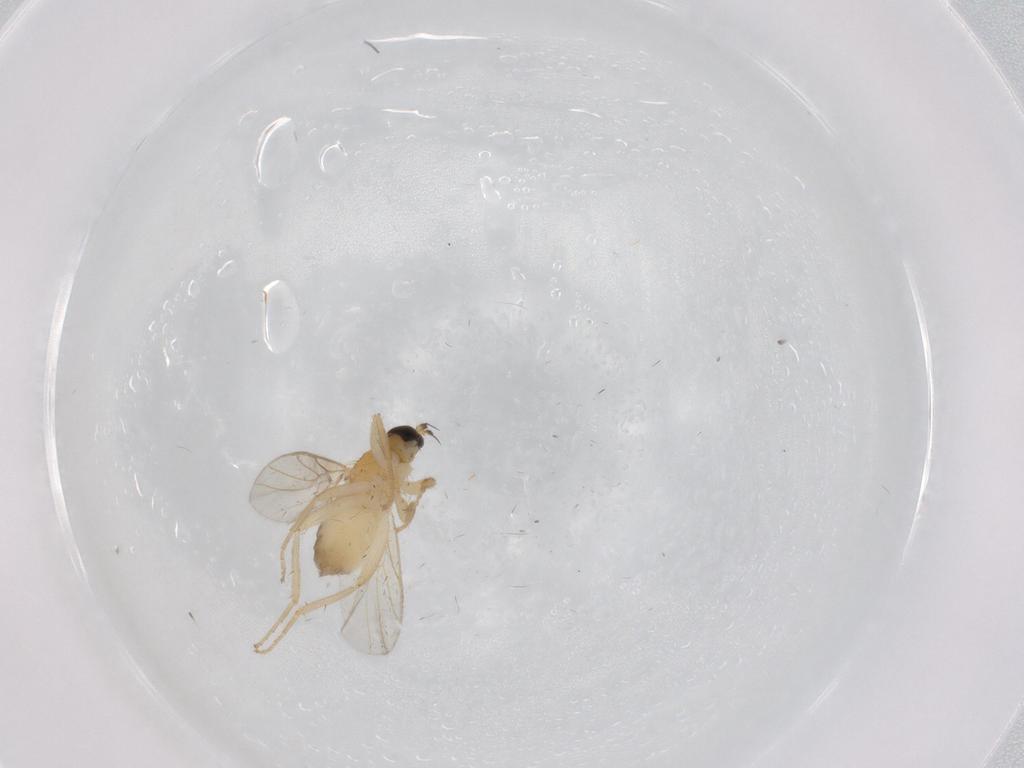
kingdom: Animalia
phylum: Arthropoda
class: Insecta
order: Diptera
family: Hybotidae
